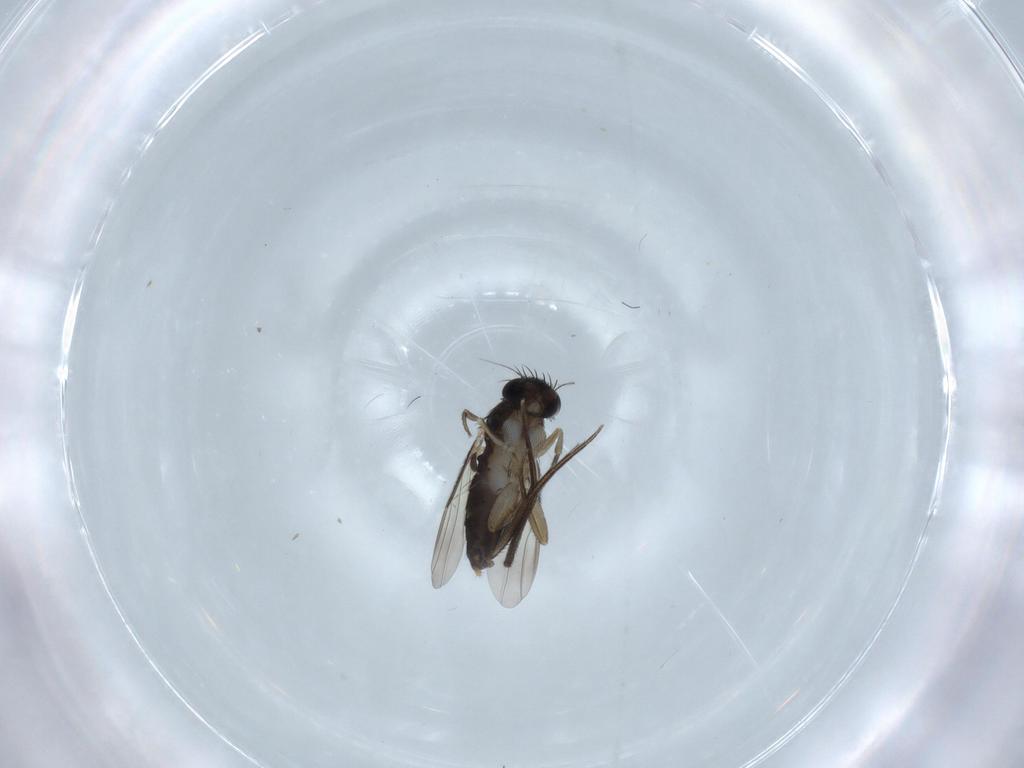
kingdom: Animalia
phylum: Arthropoda
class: Insecta
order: Diptera
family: Phoridae
